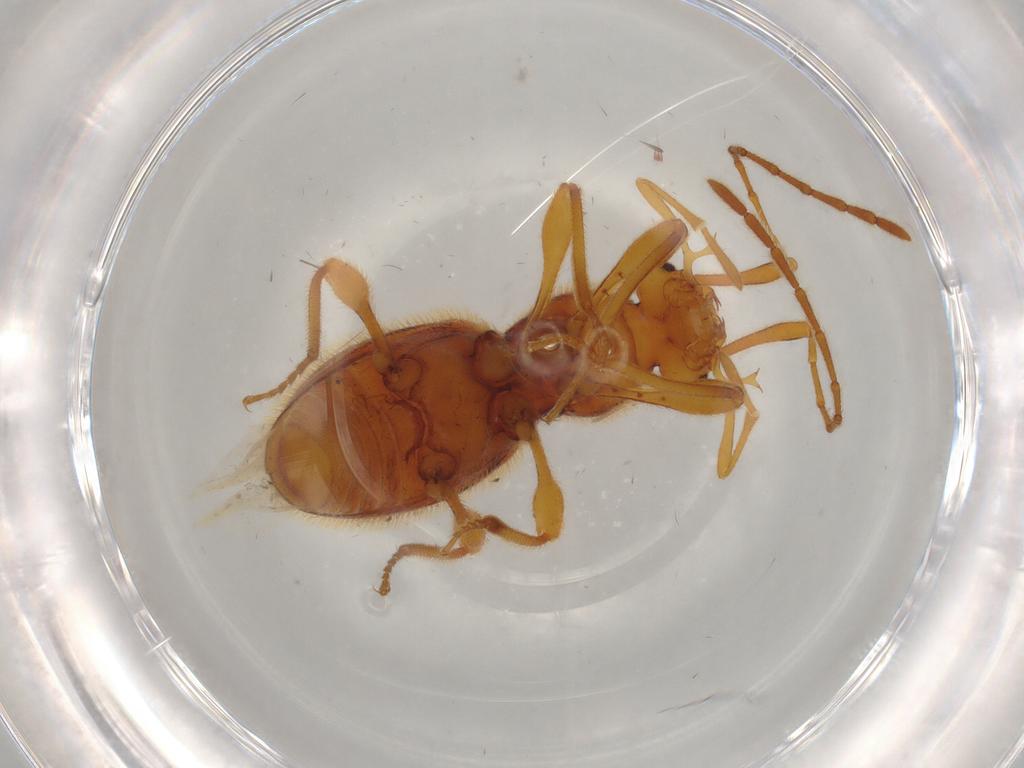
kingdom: Animalia
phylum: Arthropoda
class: Insecta
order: Coleoptera
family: Staphylinidae
